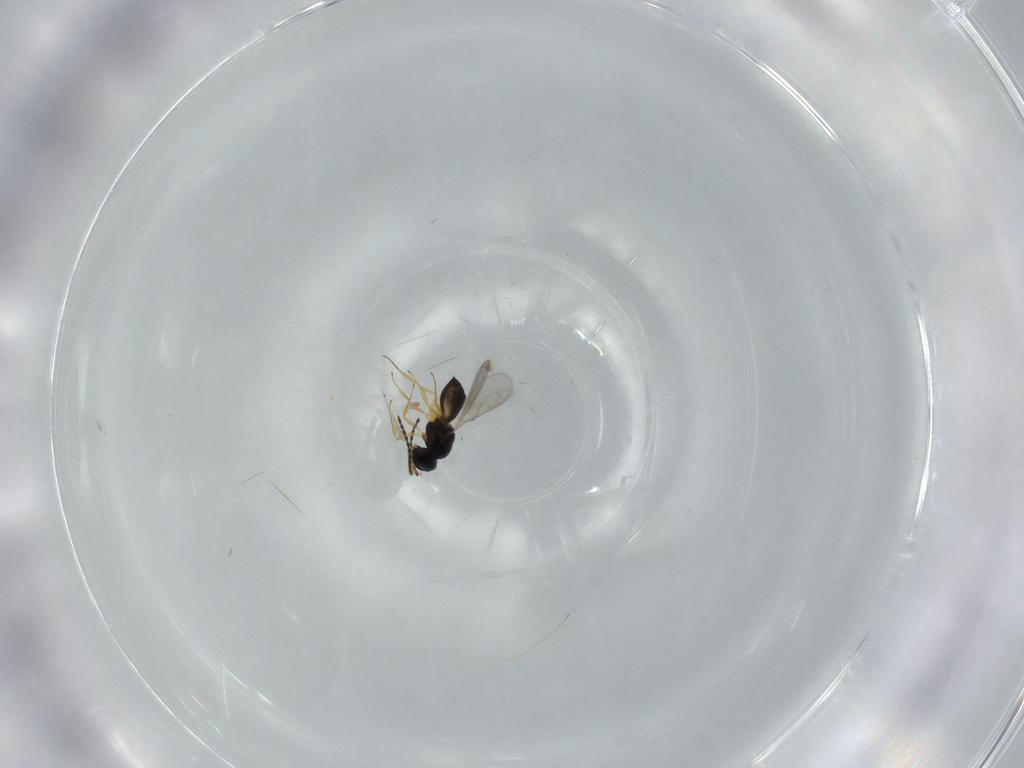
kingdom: Animalia
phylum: Arthropoda
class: Insecta
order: Hymenoptera
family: Scelionidae
